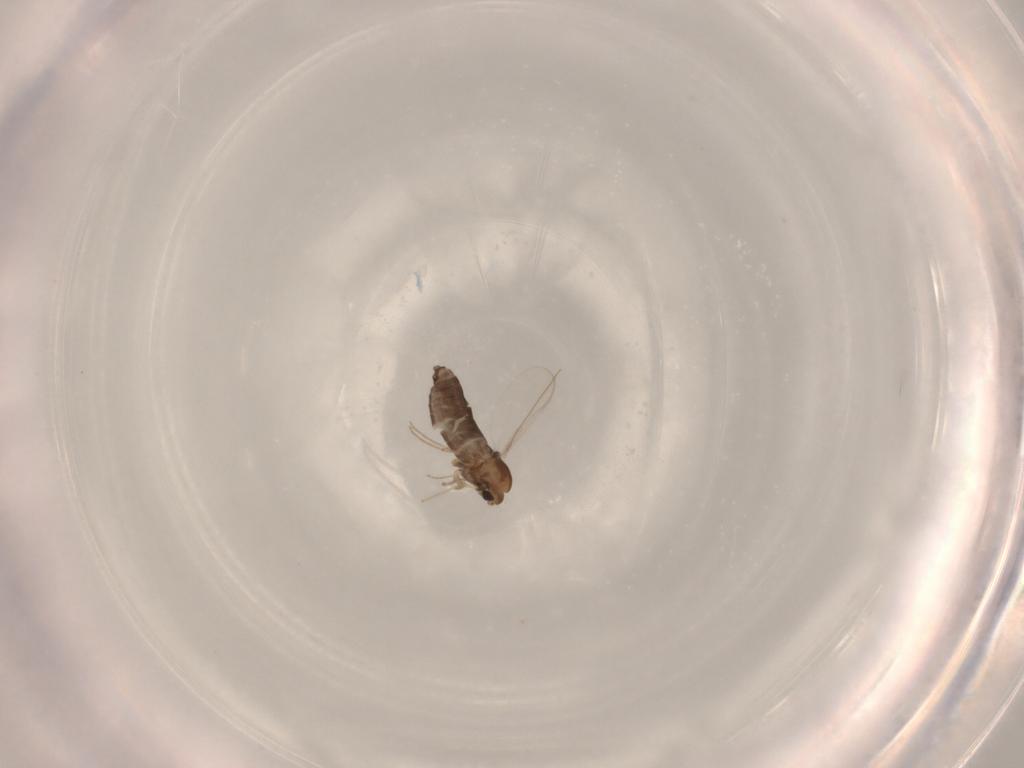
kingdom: Animalia
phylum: Arthropoda
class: Insecta
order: Diptera
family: Chironomidae
